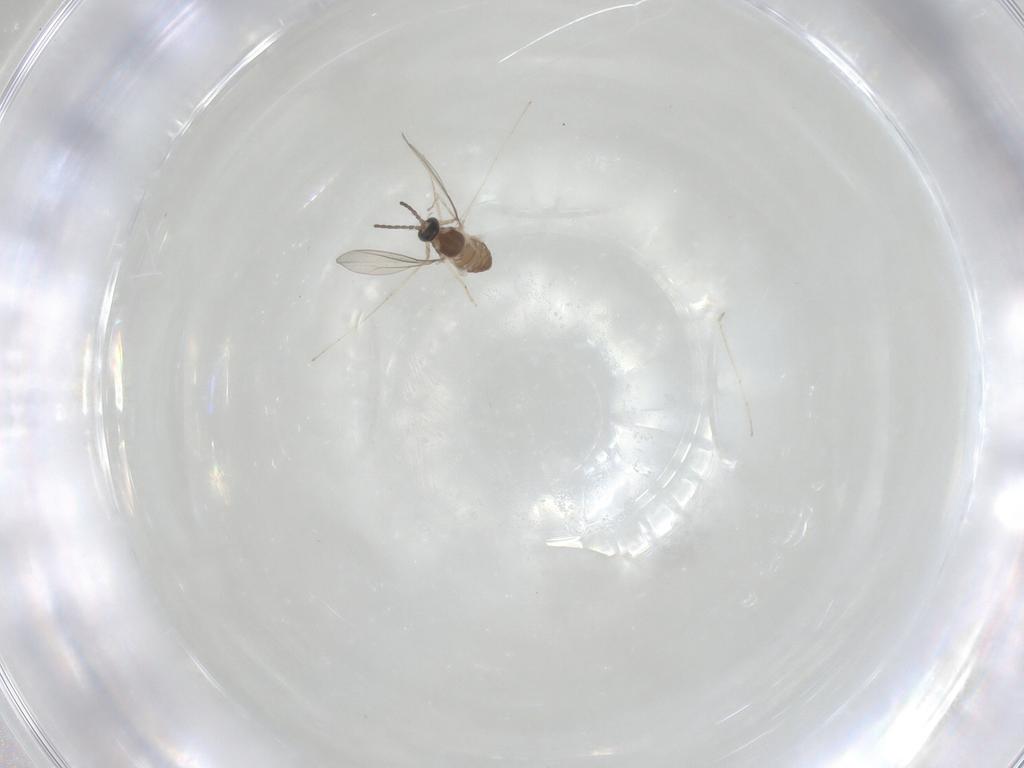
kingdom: Animalia
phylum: Arthropoda
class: Insecta
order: Diptera
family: Cecidomyiidae
